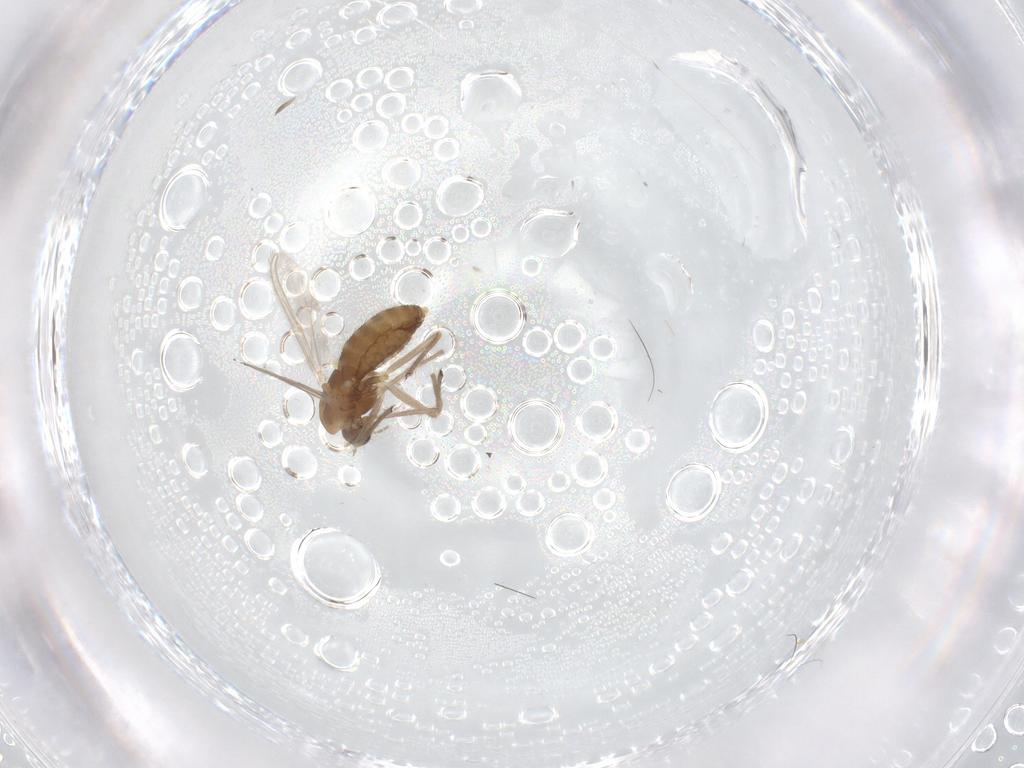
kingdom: Animalia
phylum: Arthropoda
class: Insecta
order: Diptera
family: Chironomidae
